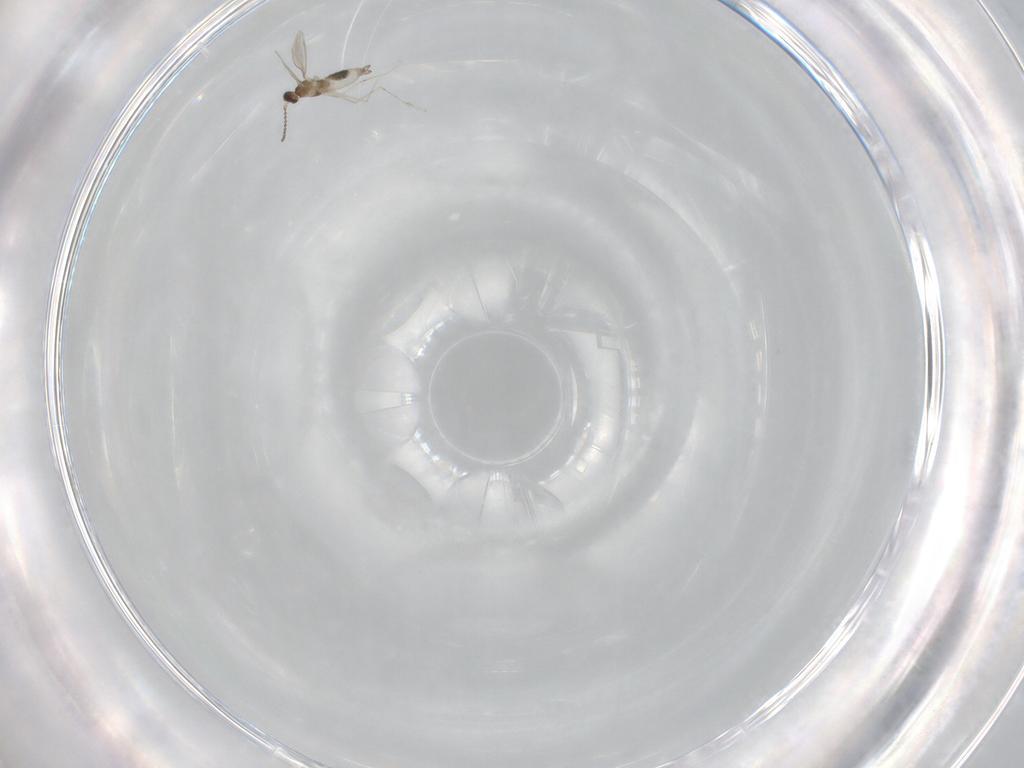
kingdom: Animalia
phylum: Arthropoda
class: Insecta
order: Diptera
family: Cecidomyiidae
